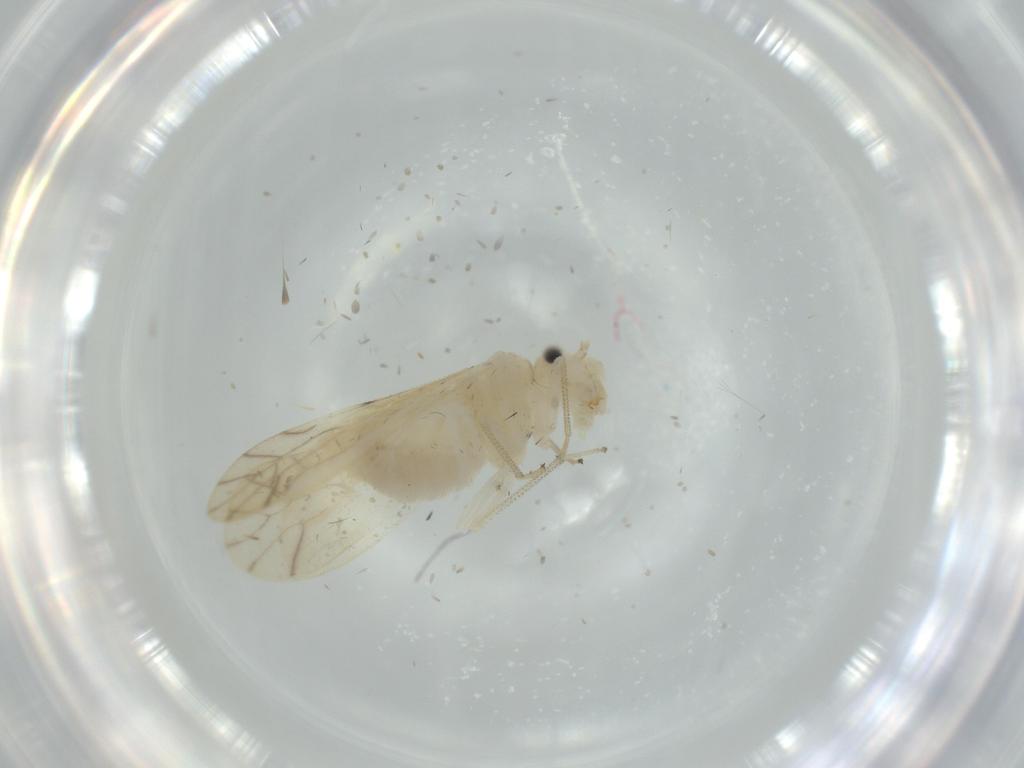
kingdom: Animalia
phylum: Arthropoda
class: Insecta
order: Psocodea
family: Caeciliusidae
